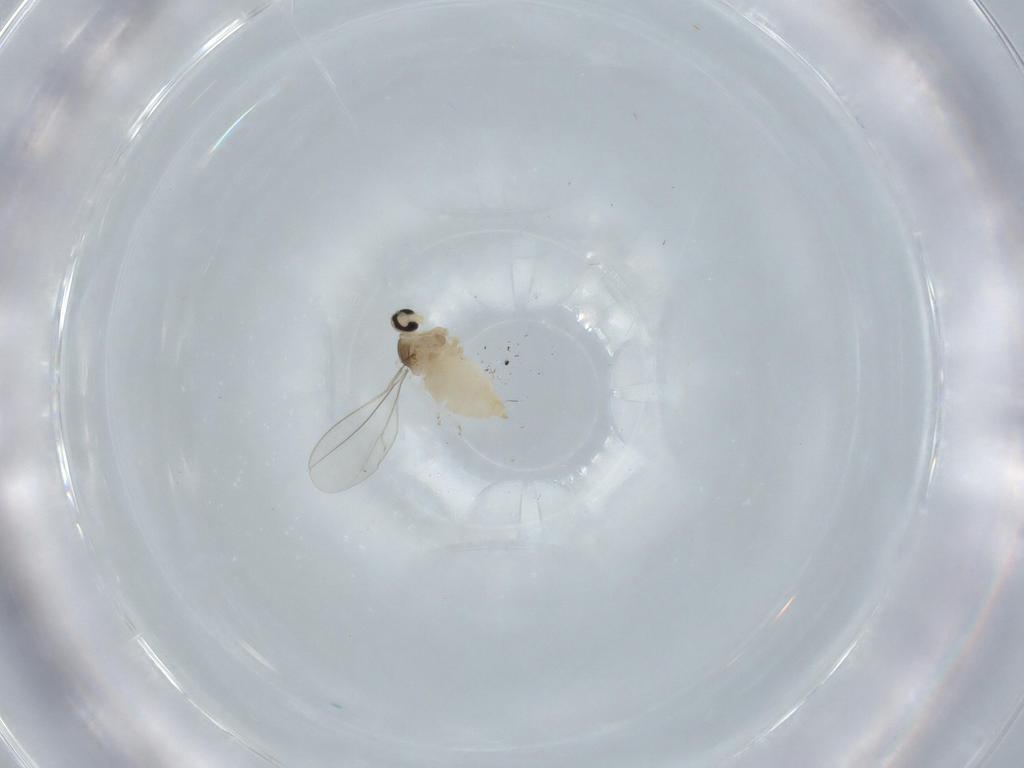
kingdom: Animalia
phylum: Arthropoda
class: Insecta
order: Diptera
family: Cecidomyiidae
